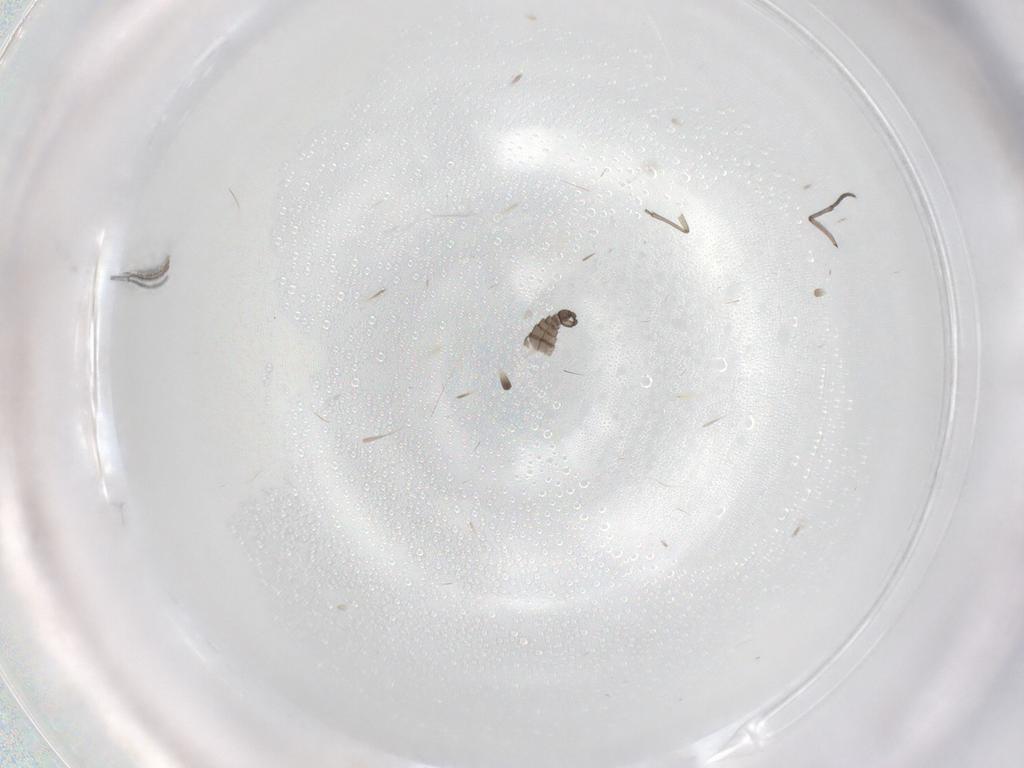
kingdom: Animalia
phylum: Arthropoda
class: Insecta
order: Diptera
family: Sciaridae
